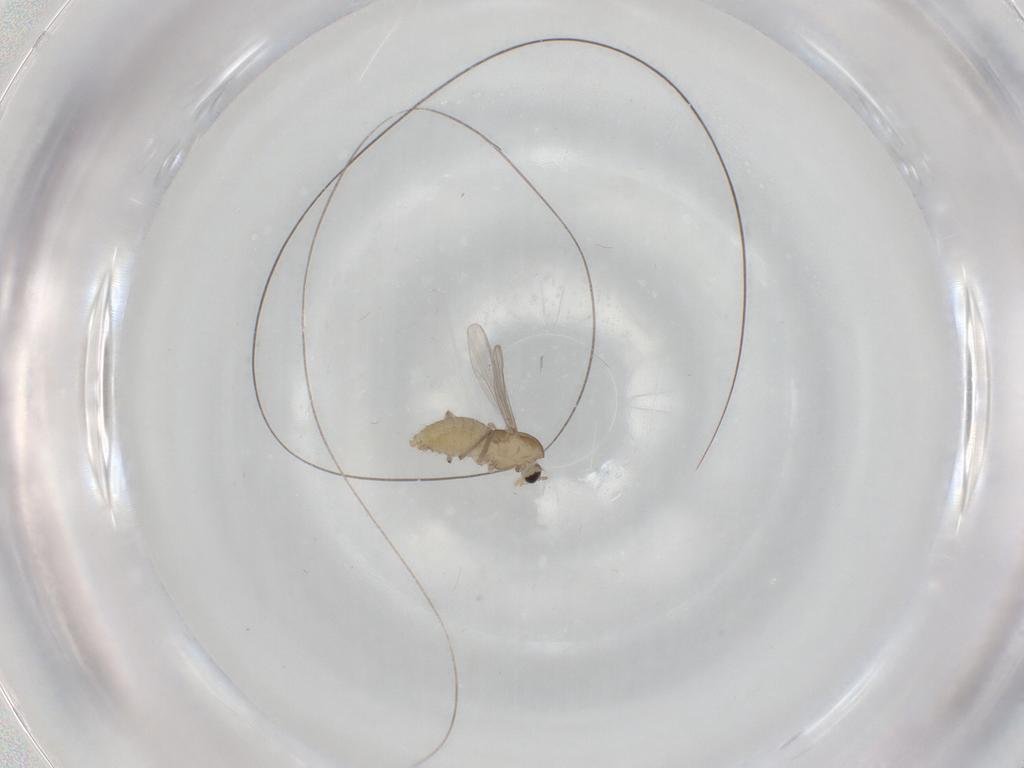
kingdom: Animalia
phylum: Arthropoda
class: Insecta
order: Diptera
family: Chironomidae
